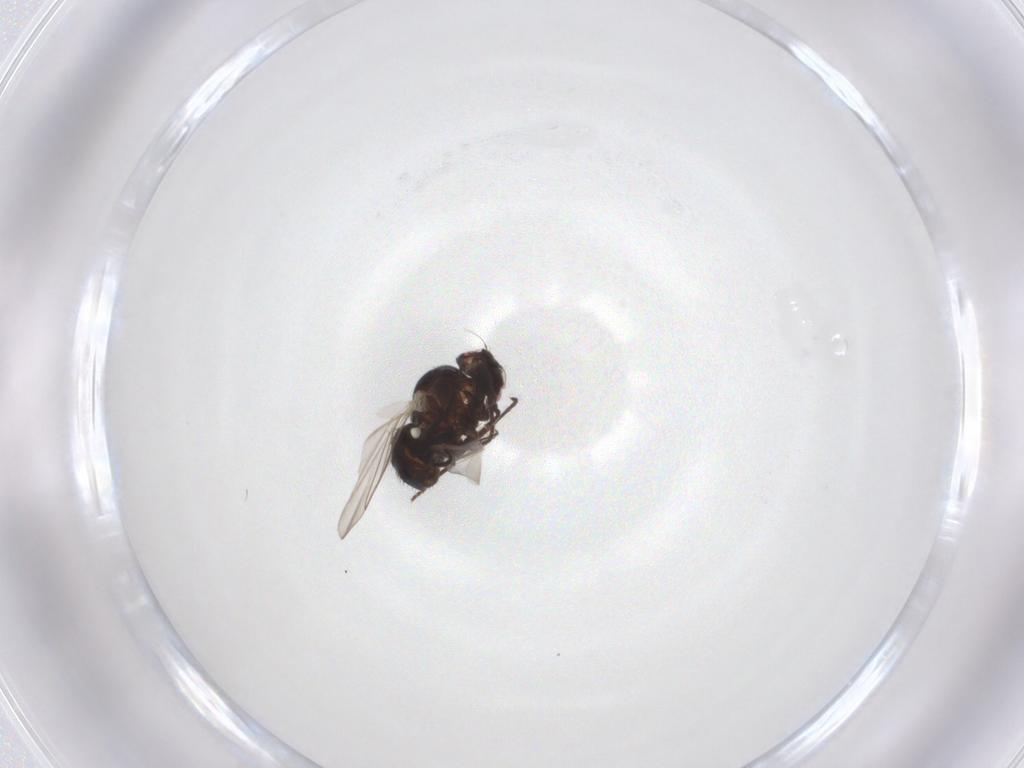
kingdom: Animalia
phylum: Arthropoda
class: Insecta
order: Diptera
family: Agromyzidae
